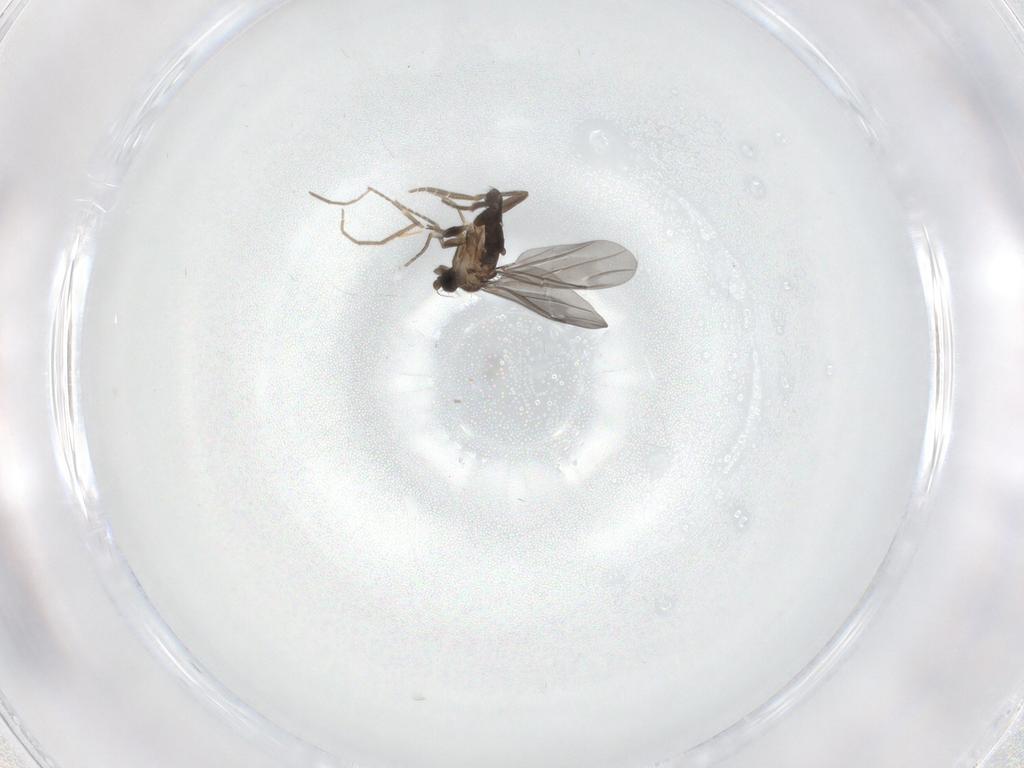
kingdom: Animalia
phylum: Arthropoda
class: Insecta
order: Diptera
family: Chironomidae
